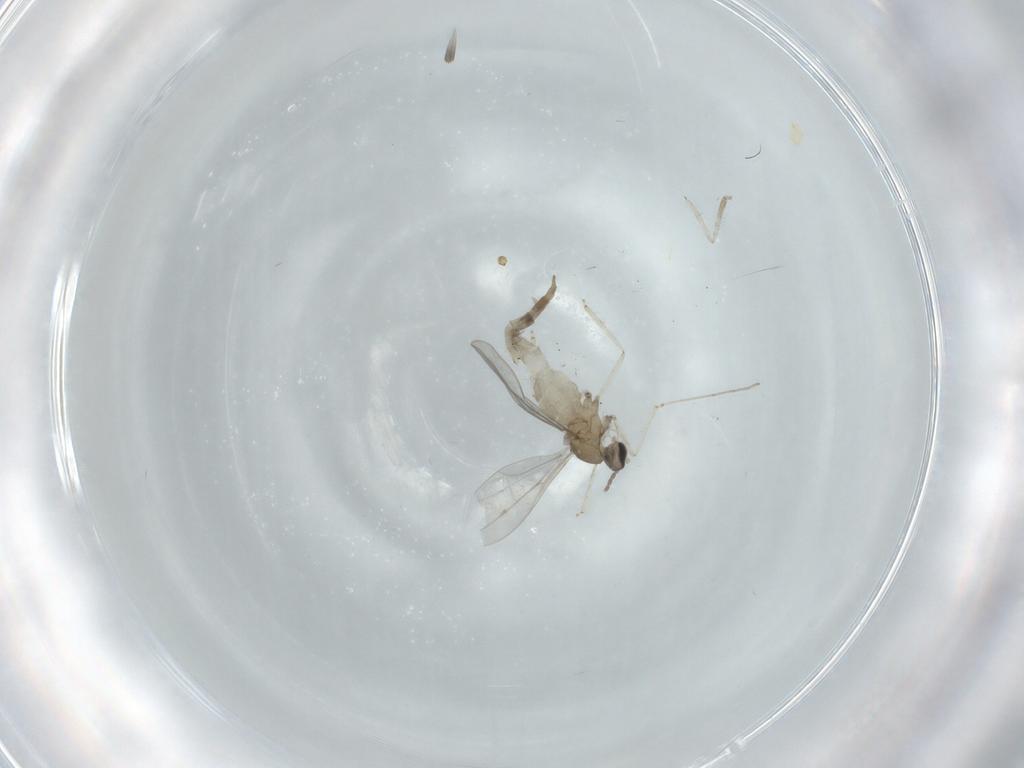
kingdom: Animalia
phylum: Arthropoda
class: Insecta
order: Diptera
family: Cecidomyiidae
